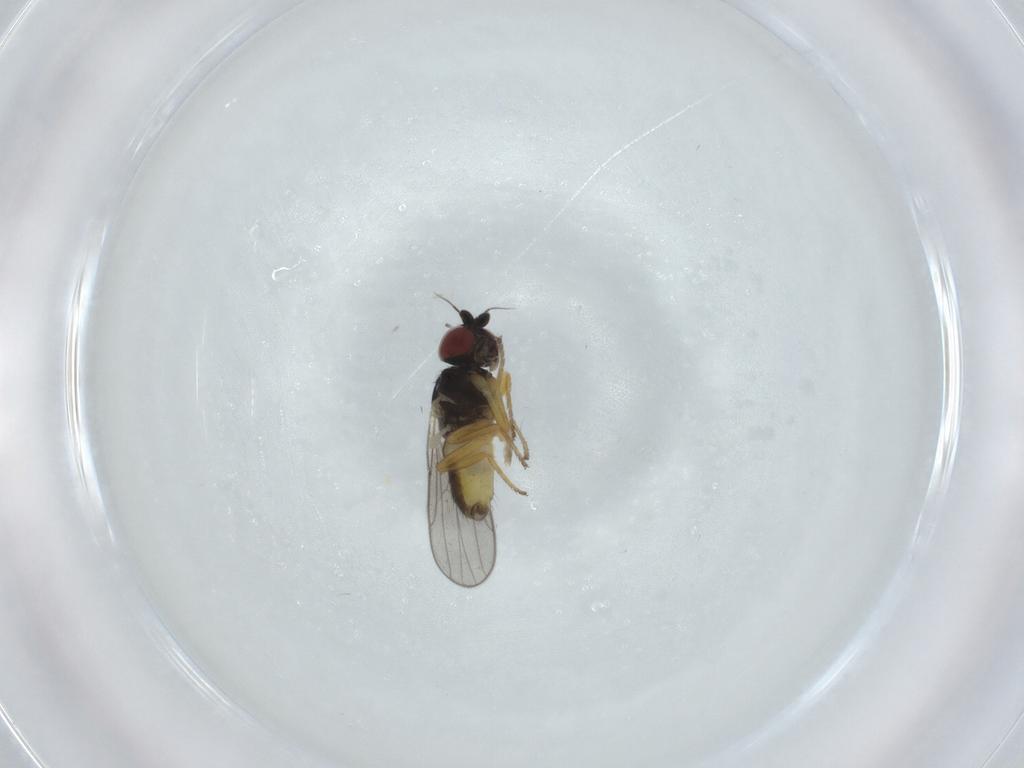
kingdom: Animalia
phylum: Arthropoda
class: Insecta
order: Diptera
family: Chloropidae
